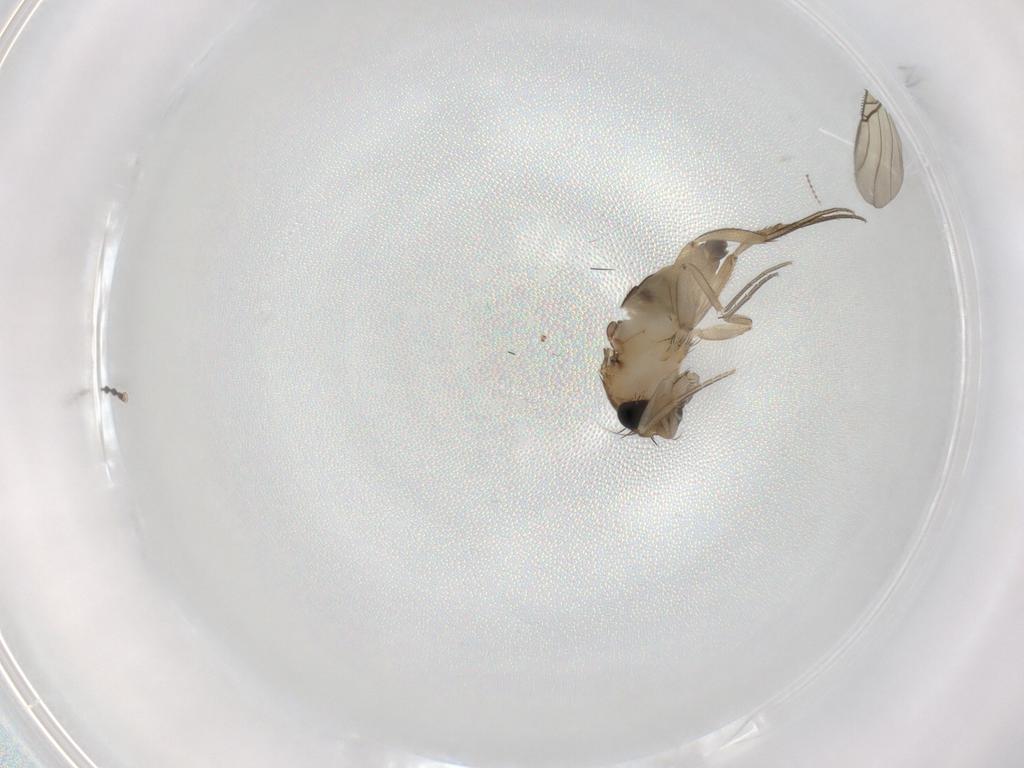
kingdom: Animalia
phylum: Arthropoda
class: Insecta
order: Diptera
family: Phoridae
